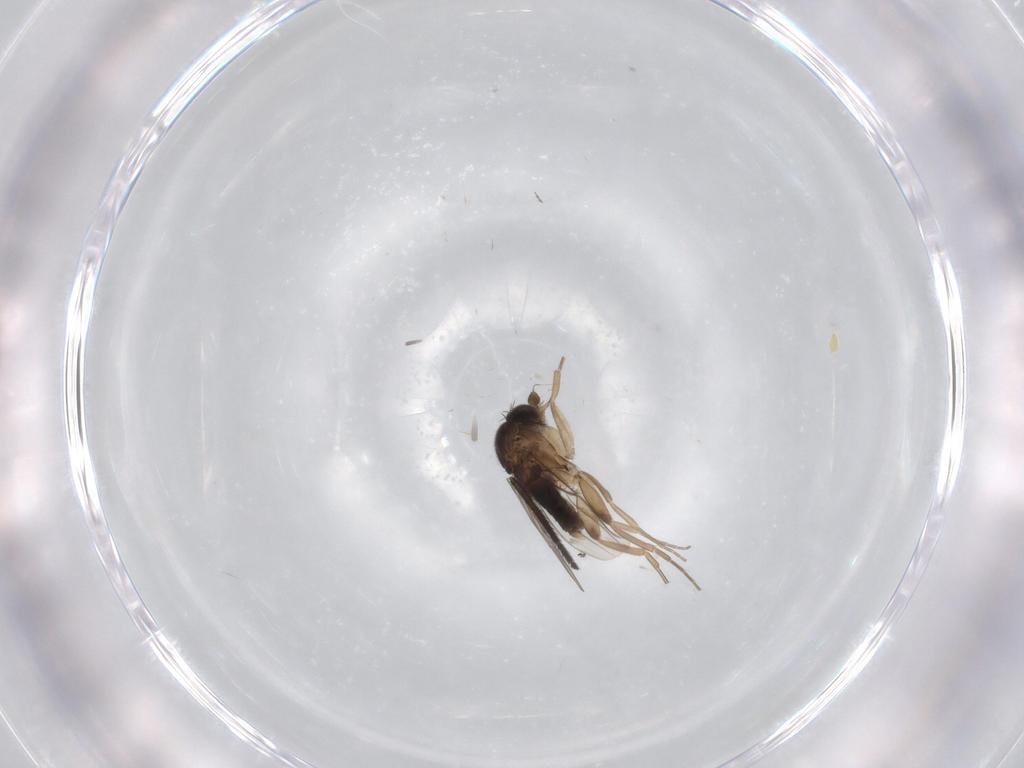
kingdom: Animalia
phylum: Arthropoda
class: Insecta
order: Diptera
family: Phoridae
